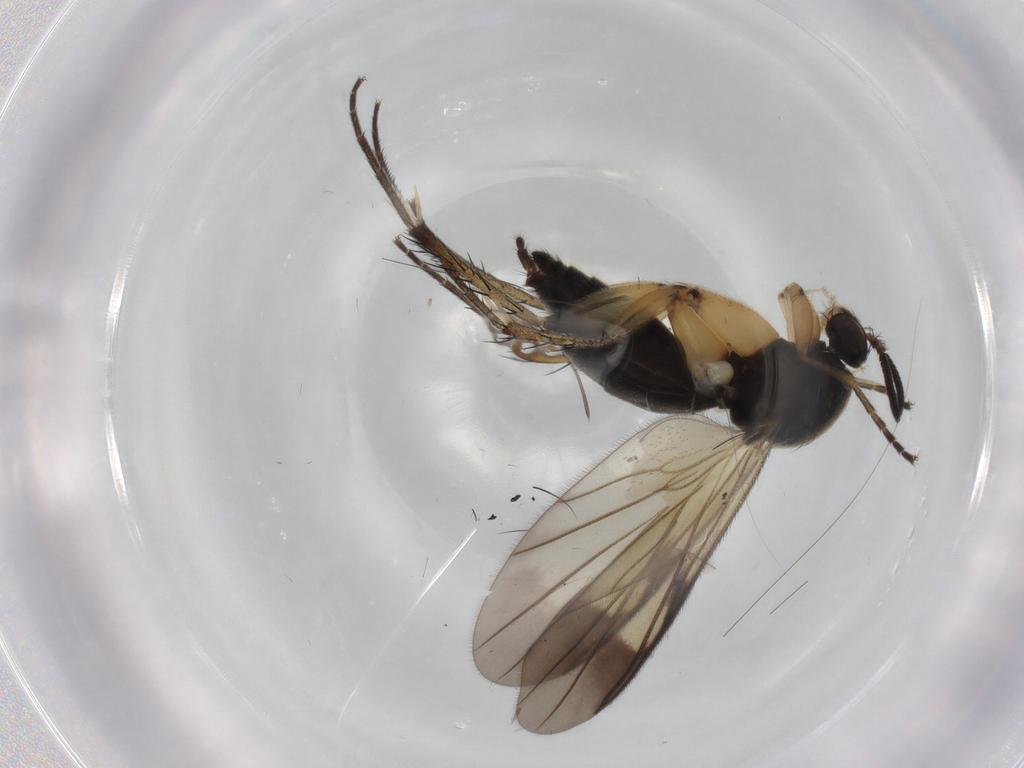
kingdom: Animalia
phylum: Arthropoda
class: Insecta
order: Diptera
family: Mycetophilidae
